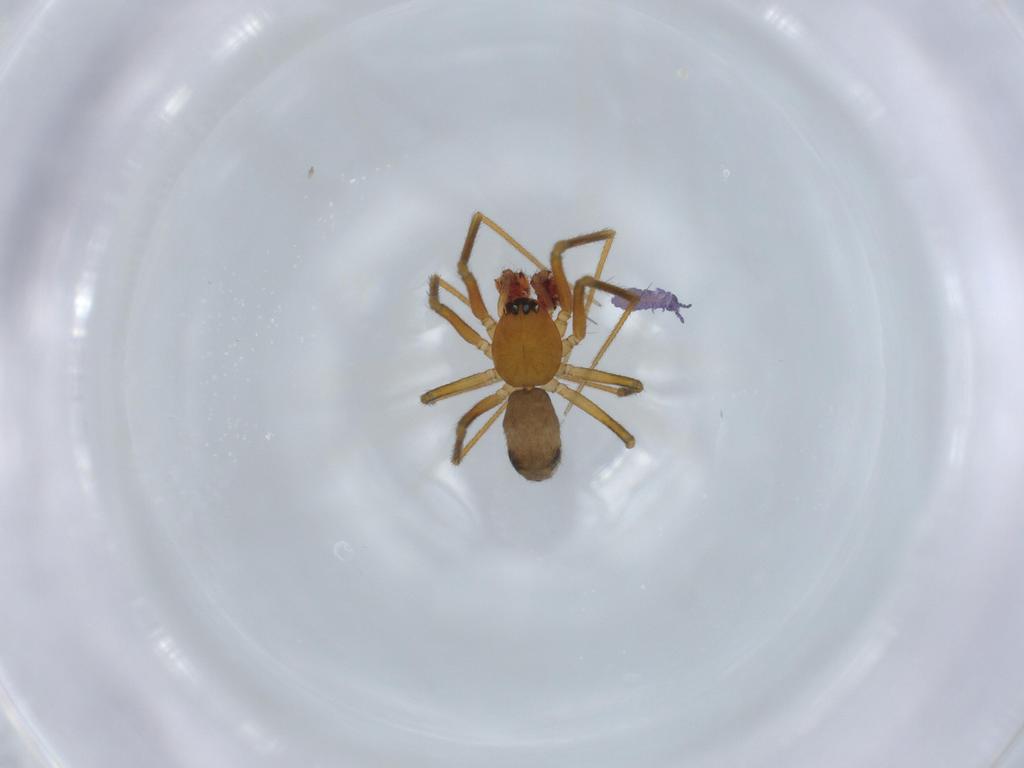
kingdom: Animalia
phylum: Arthropoda
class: Arachnida
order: Araneae
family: Linyphiidae
